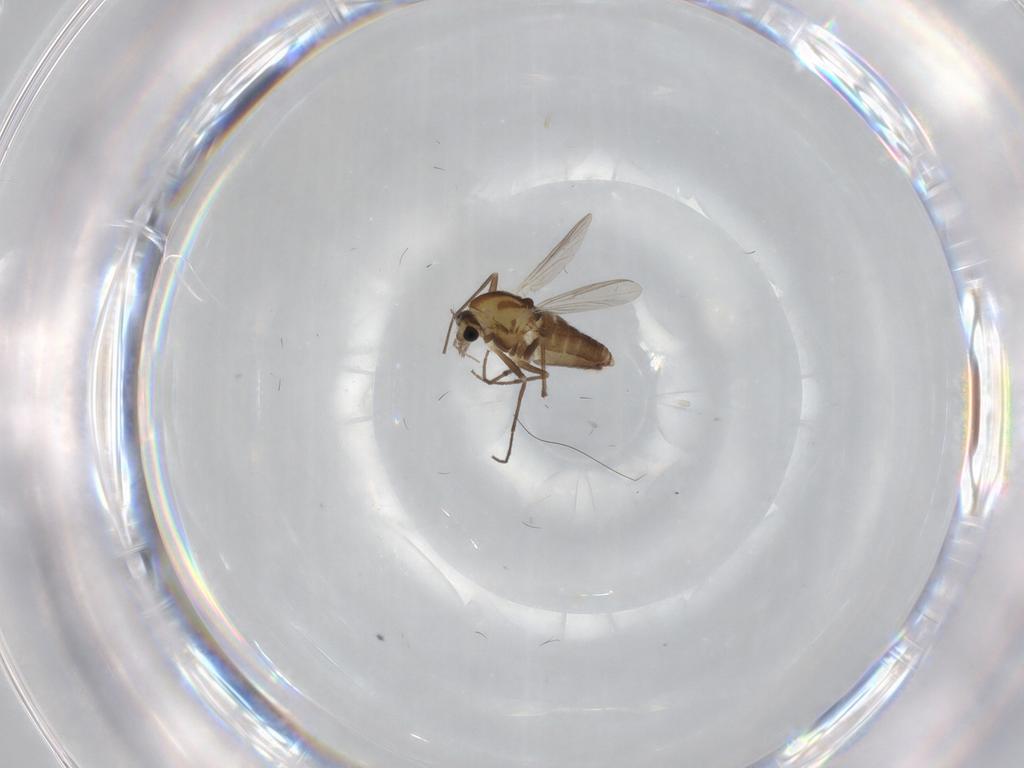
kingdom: Animalia
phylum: Arthropoda
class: Insecta
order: Diptera
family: Chironomidae
